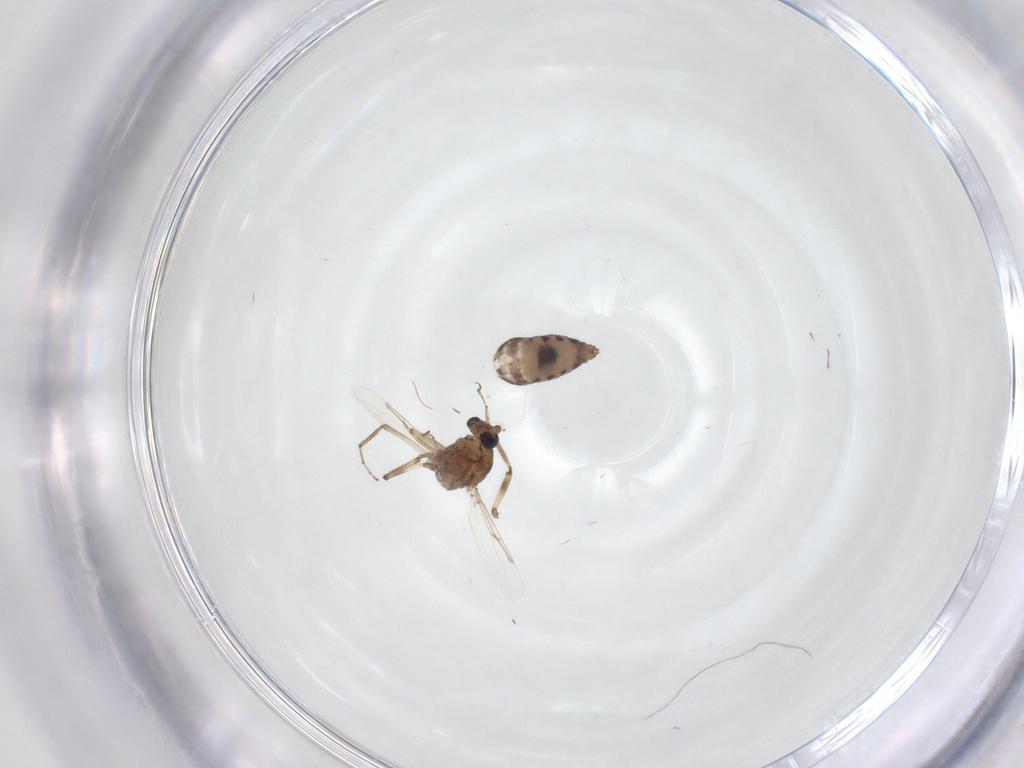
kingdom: Animalia
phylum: Arthropoda
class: Insecta
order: Diptera
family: Ceratopogonidae
